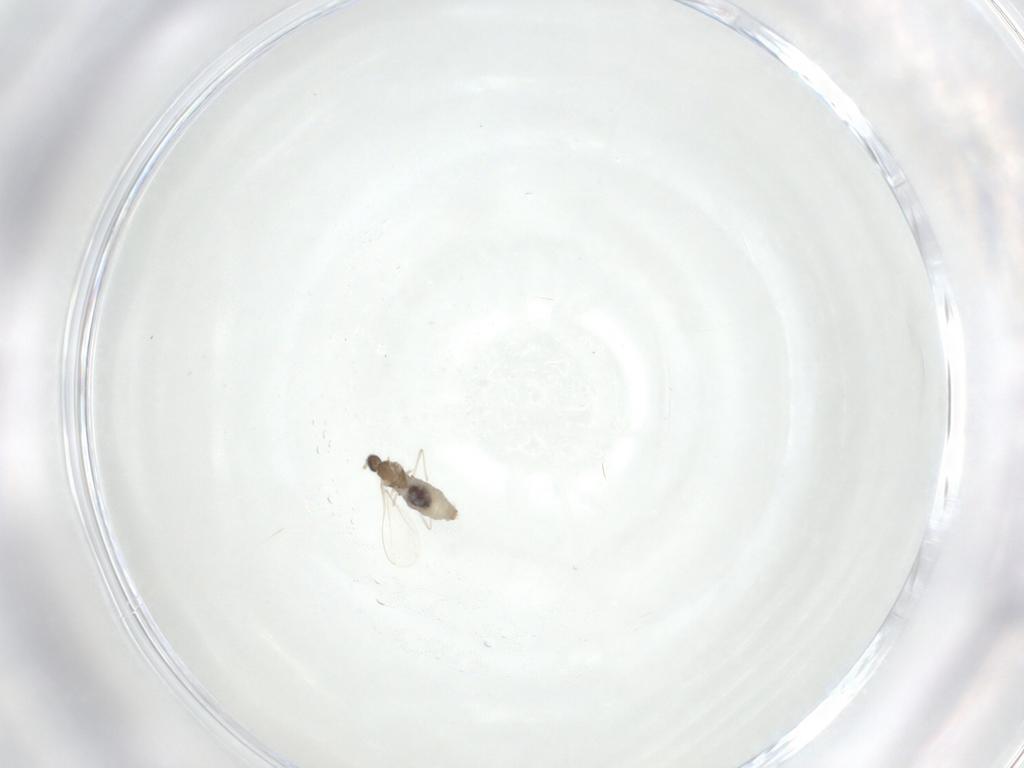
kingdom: Animalia
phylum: Arthropoda
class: Insecta
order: Diptera
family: Cecidomyiidae
